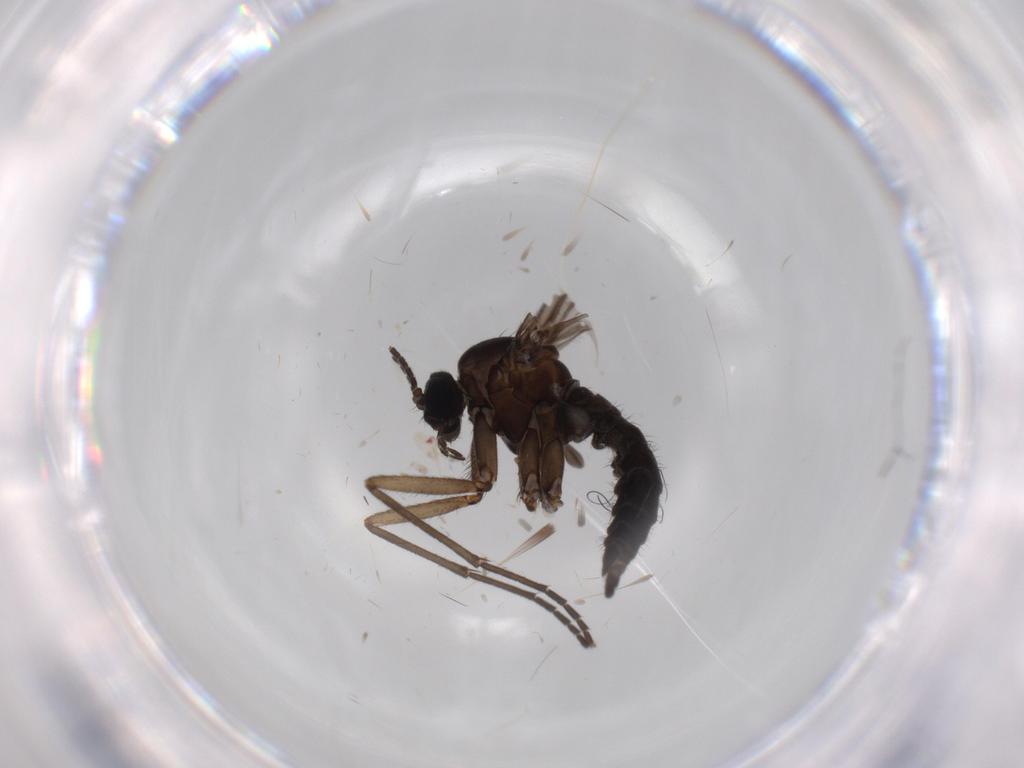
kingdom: Animalia
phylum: Arthropoda
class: Insecta
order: Diptera
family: Sciaridae
